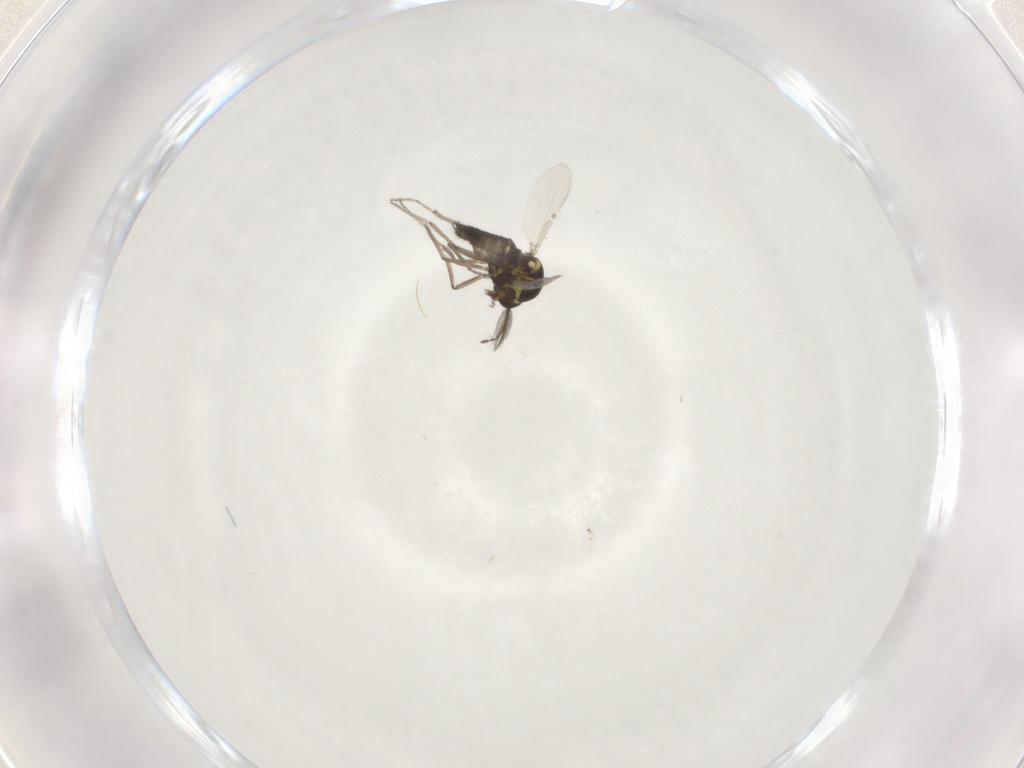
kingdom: Animalia
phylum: Arthropoda
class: Insecta
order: Diptera
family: Ceratopogonidae
